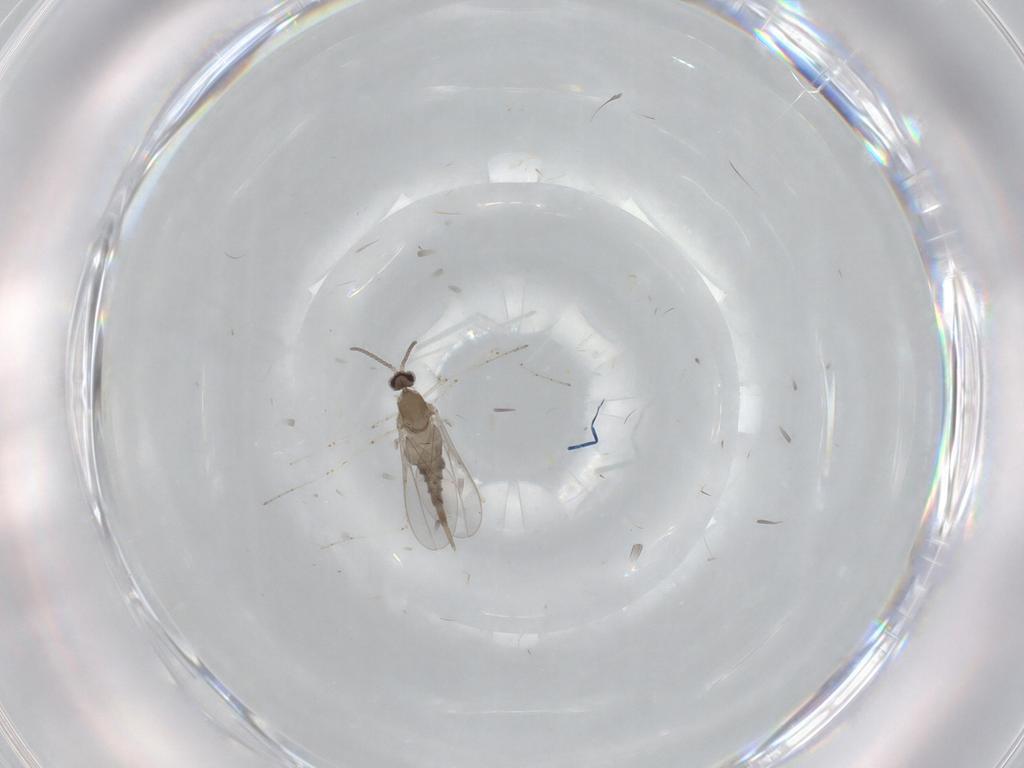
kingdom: Animalia
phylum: Arthropoda
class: Insecta
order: Diptera
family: Cecidomyiidae
